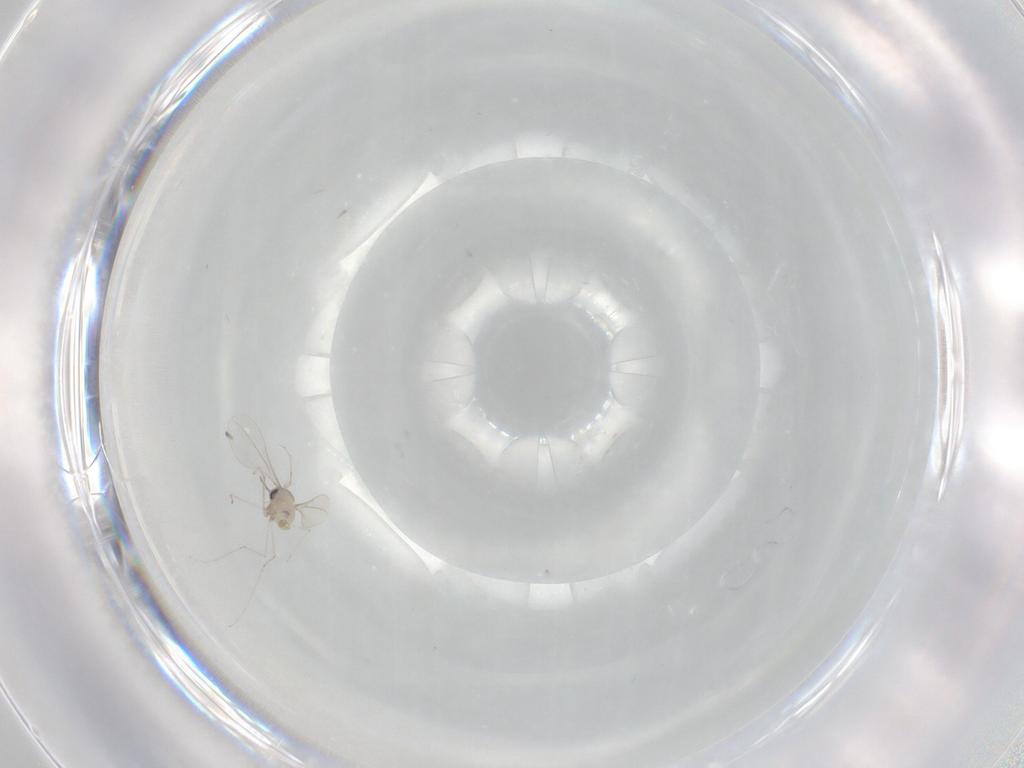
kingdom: Animalia
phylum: Arthropoda
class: Insecta
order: Diptera
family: Cecidomyiidae
